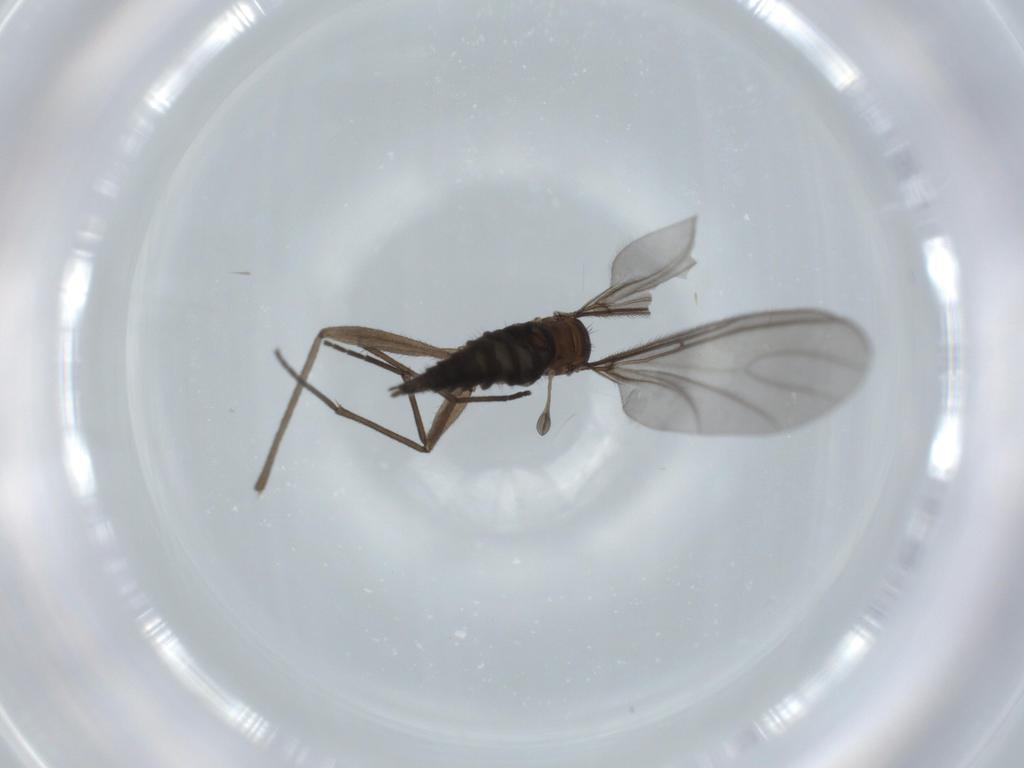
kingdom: Animalia
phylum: Arthropoda
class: Insecta
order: Diptera
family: Sciaridae
